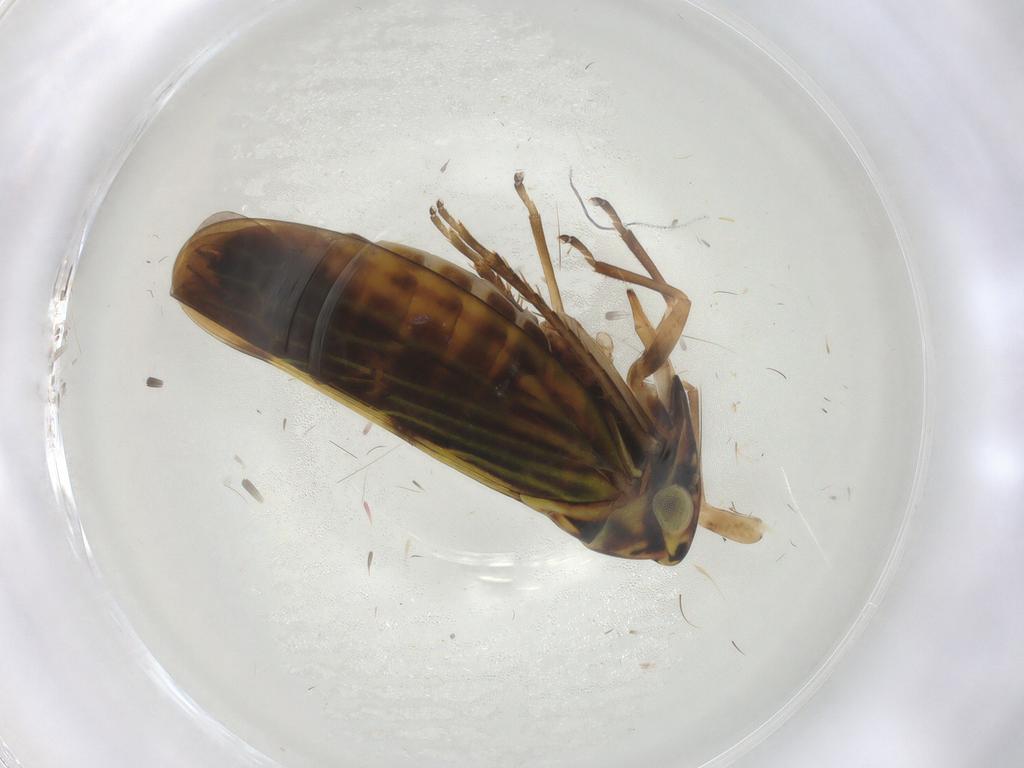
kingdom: Animalia
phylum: Arthropoda
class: Insecta
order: Hemiptera
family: Cicadellidae
